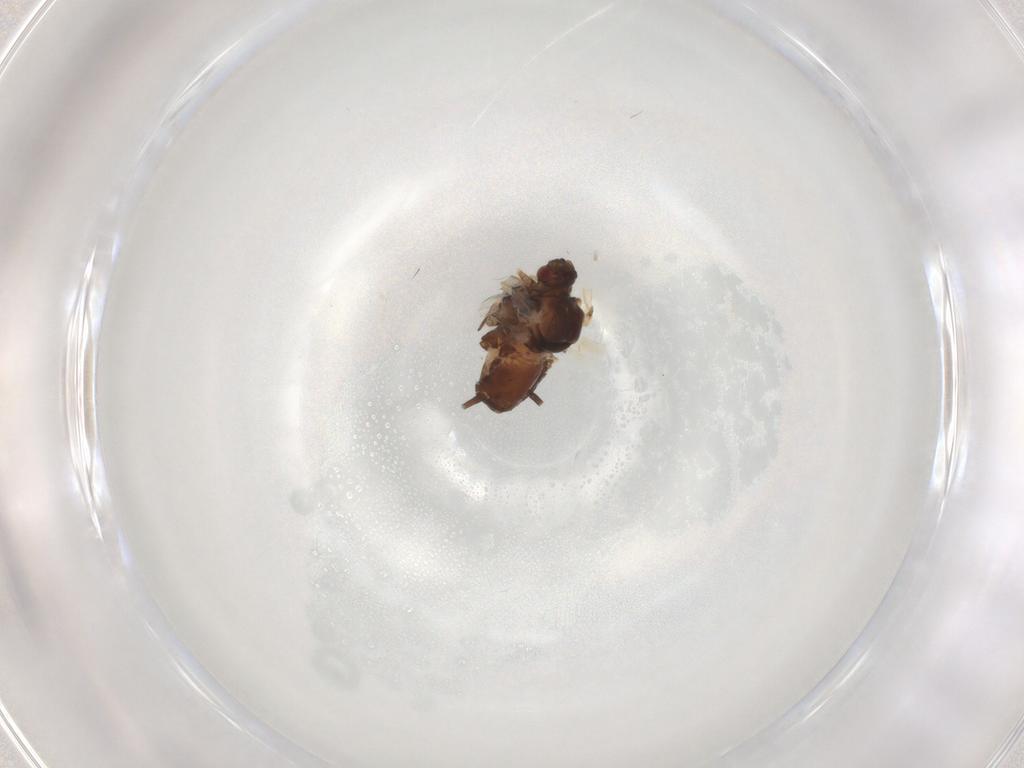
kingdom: Animalia
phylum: Arthropoda
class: Insecta
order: Hemiptera
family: Aphididae
